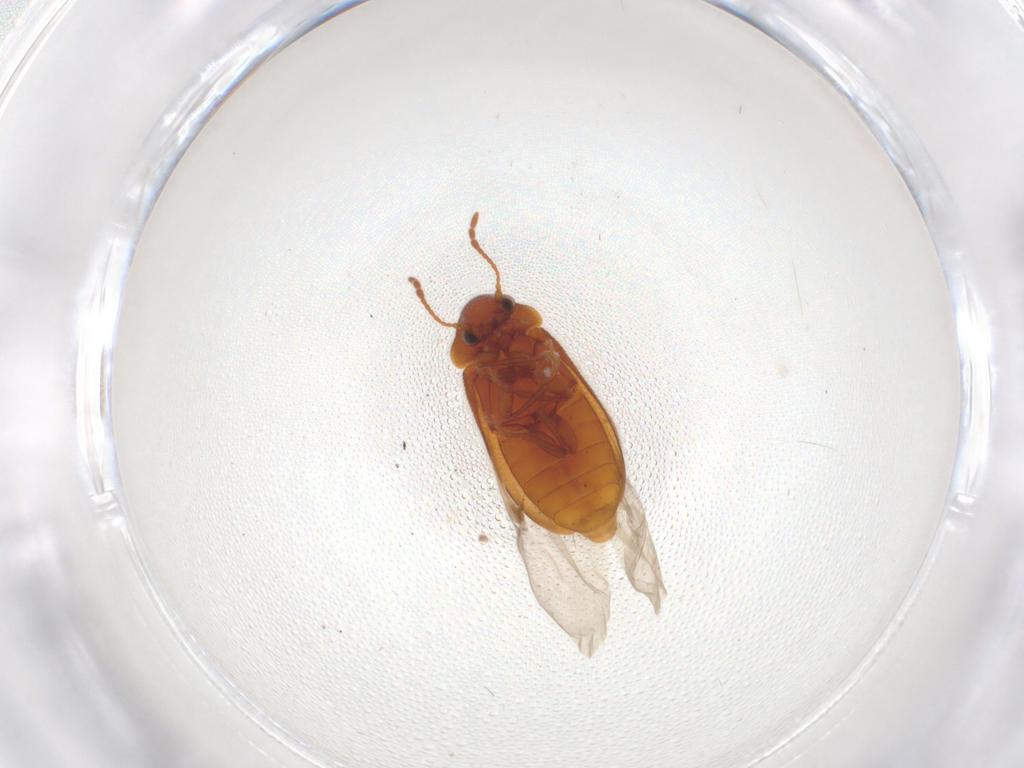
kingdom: Animalia
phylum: Arthropoda
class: Insecta
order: Coleoptera
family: Ptinidae
